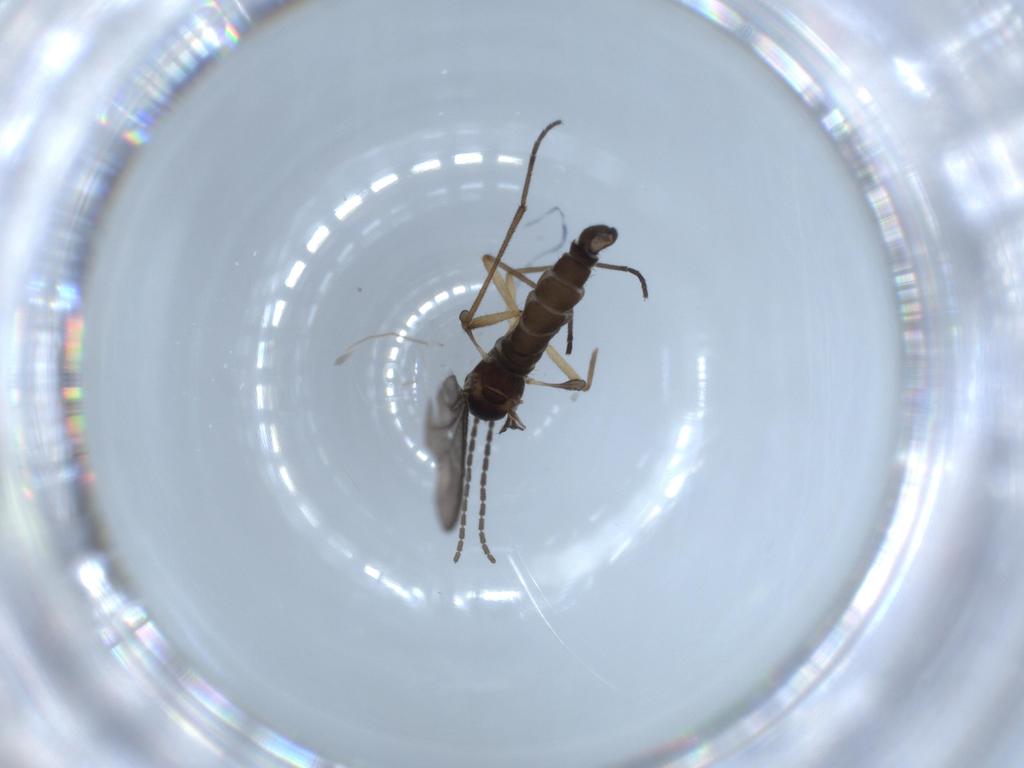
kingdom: Animalia
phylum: Arthropoda
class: Insecta
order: Diptera
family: Sciaridae
